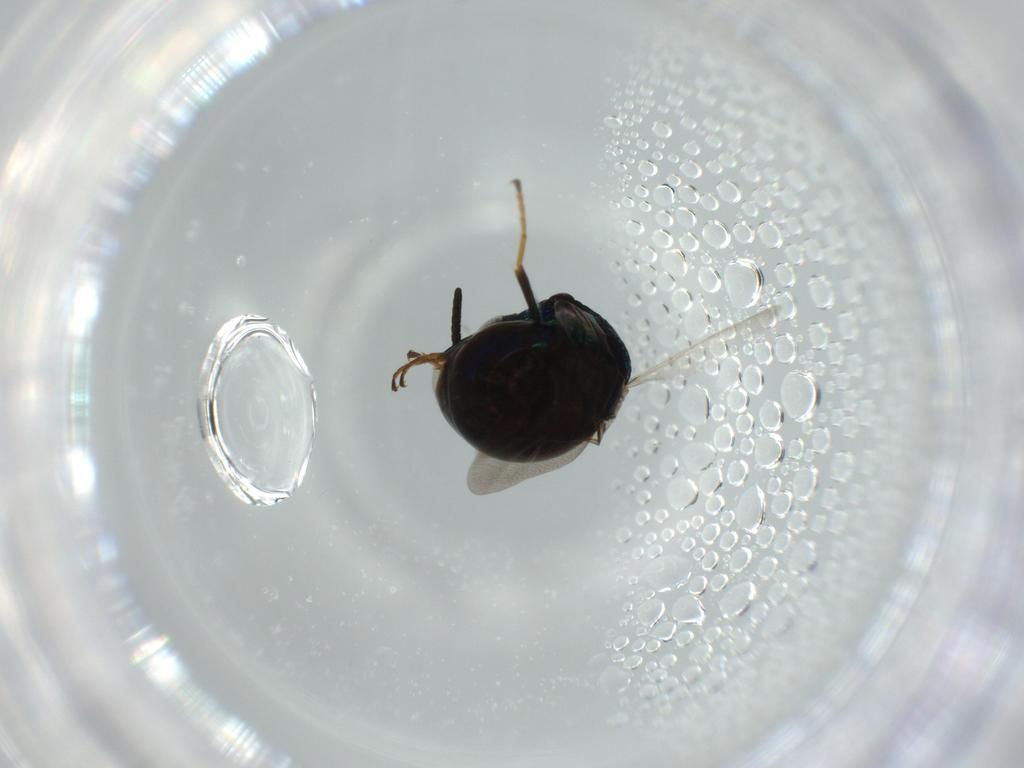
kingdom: Animalia
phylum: Arthropoda
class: Insecta
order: Hymenoptera
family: Chrysididae
